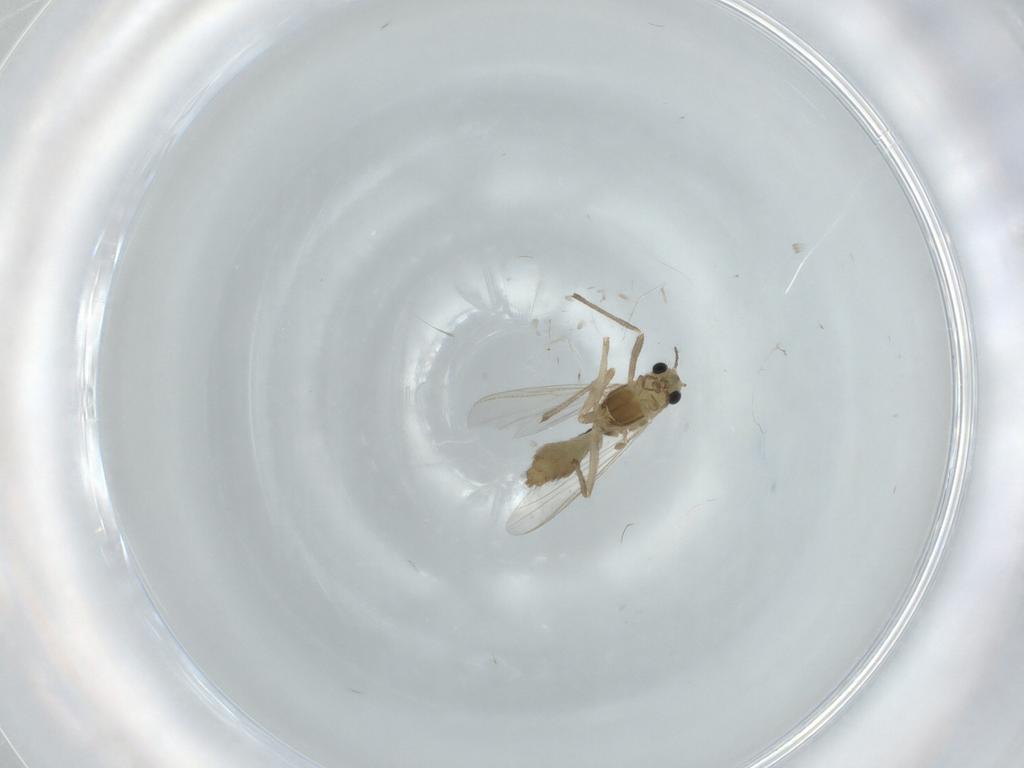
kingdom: Animalia
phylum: Arthropoda
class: Insecta
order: Diptera
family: Chironomidae
